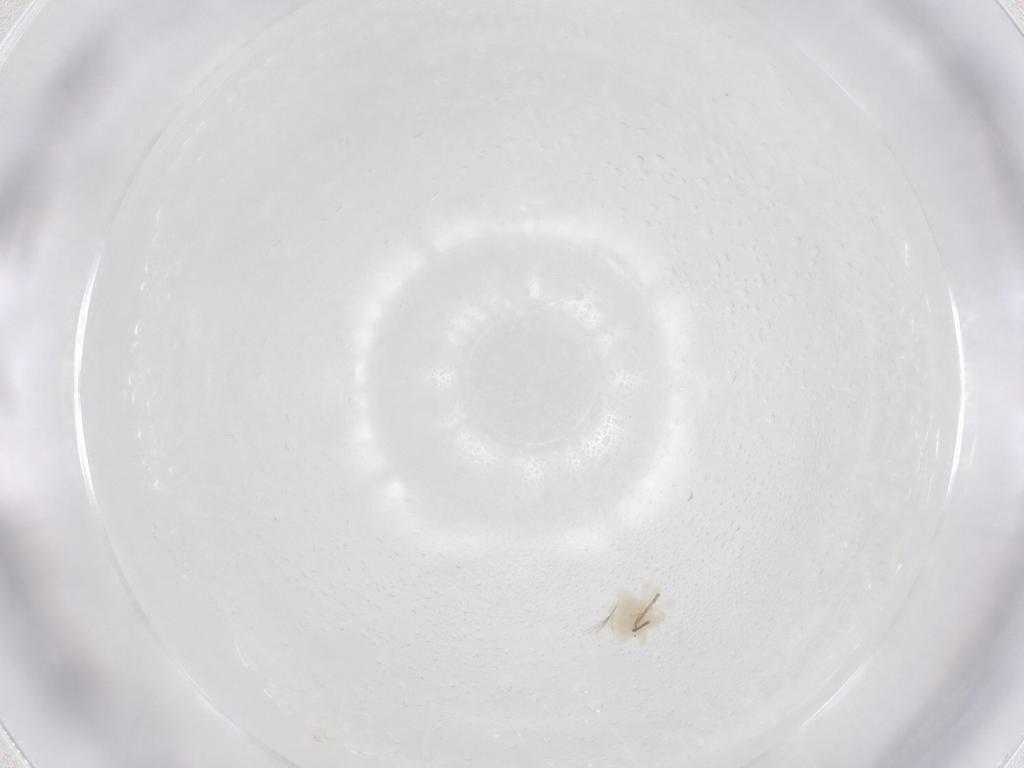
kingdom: Animalia
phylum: Arthropoda
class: Arachnida
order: Trombidiformes
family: Anystidae
